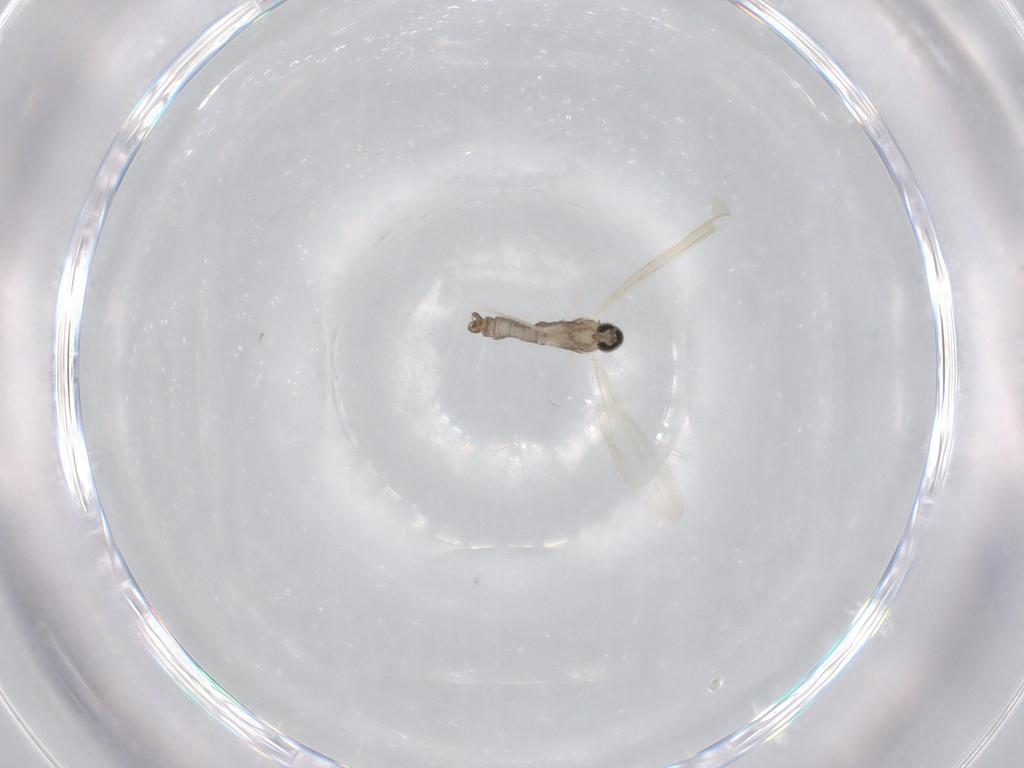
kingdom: Animalia
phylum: Arthropoda
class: Insecta
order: Diptera
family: Cecidomyiidae
